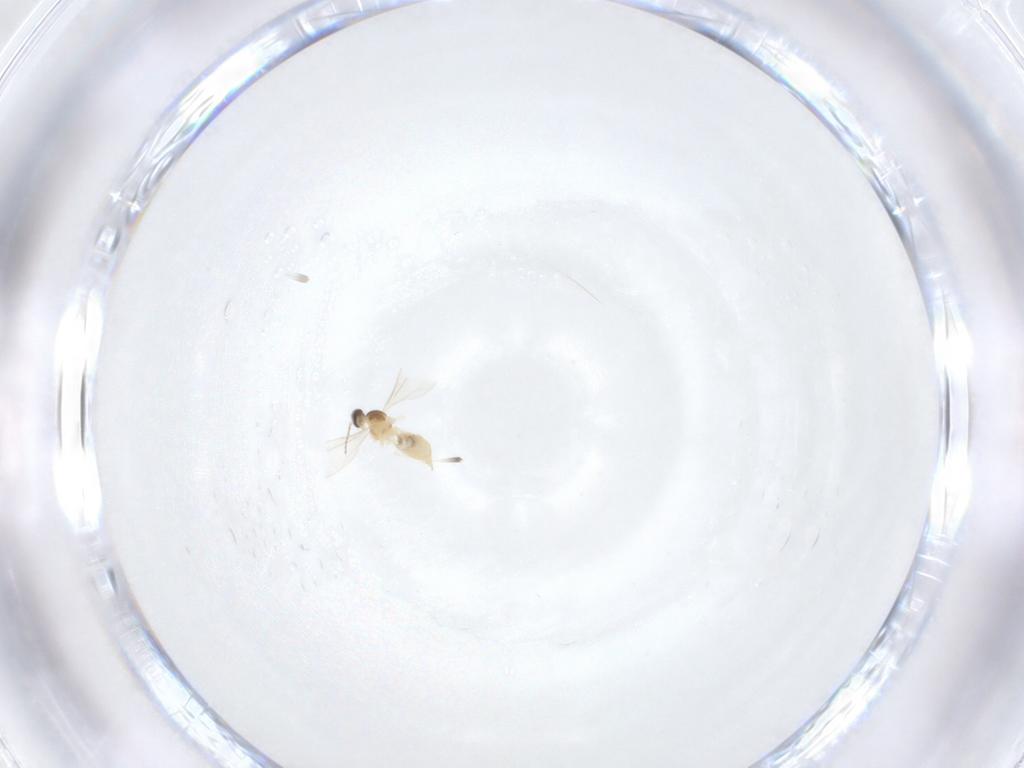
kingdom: Animalia
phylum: Arthropoda
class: Insecta
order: Diptera
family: Cecidomyiidae
